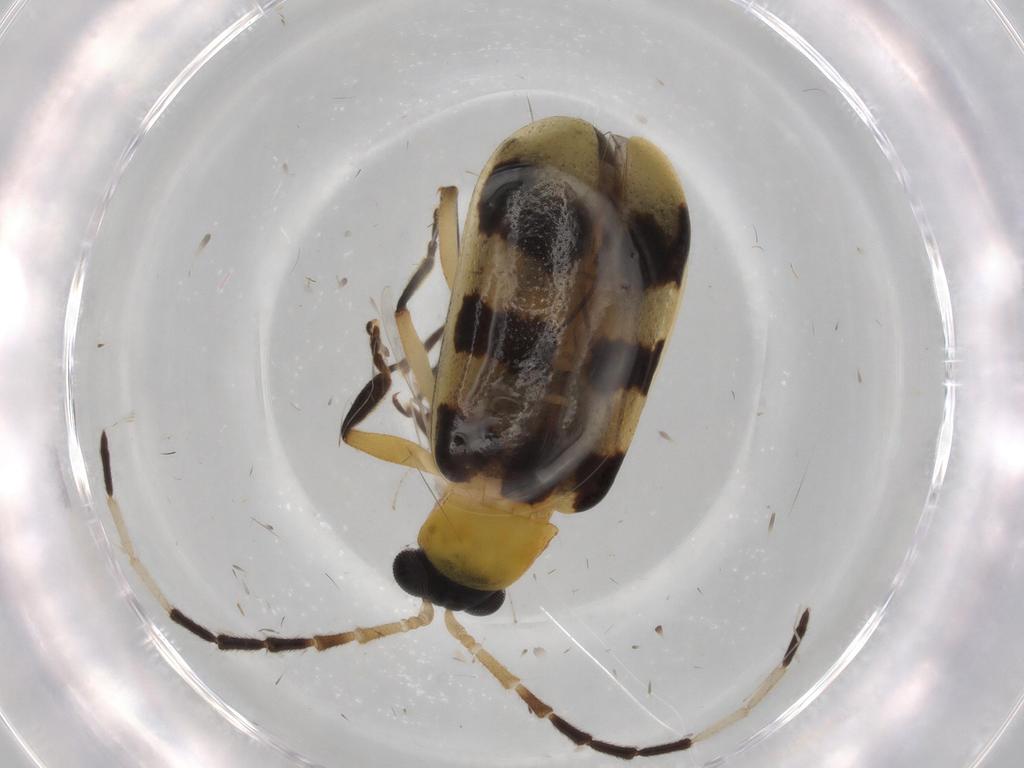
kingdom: Animalia
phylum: Arthropoda
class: Insecta
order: Coleoptera
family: Chrysomelidae
